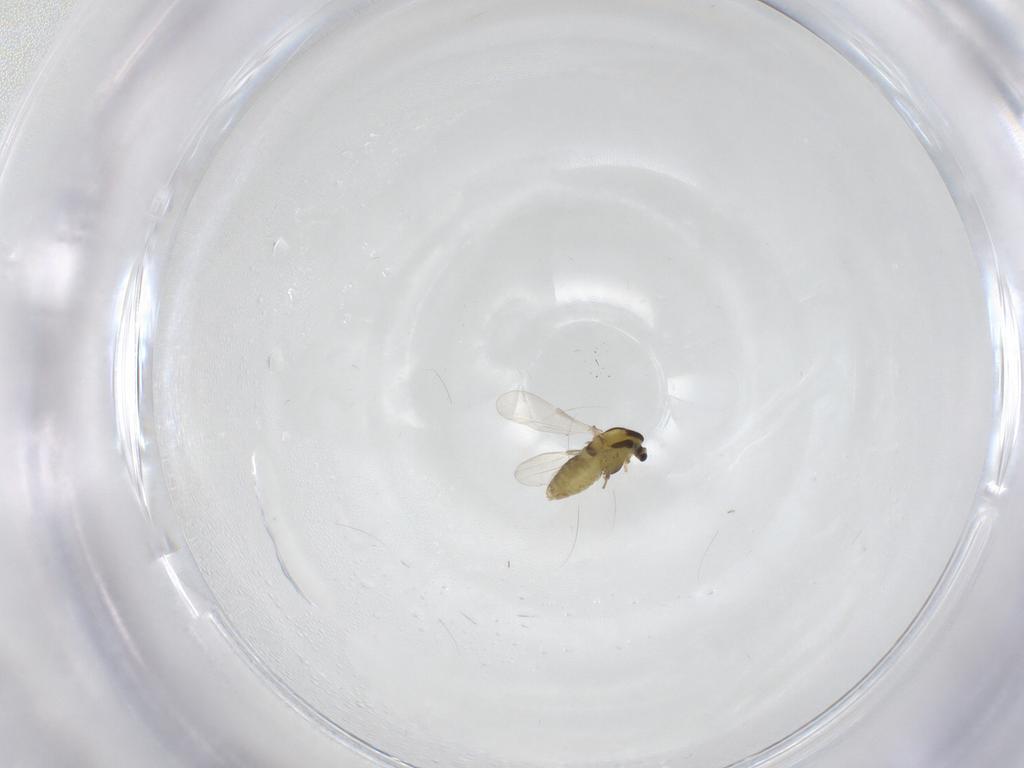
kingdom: Animalia
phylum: Arthropoda
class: Insecta
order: Diptera
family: Chironomidae
